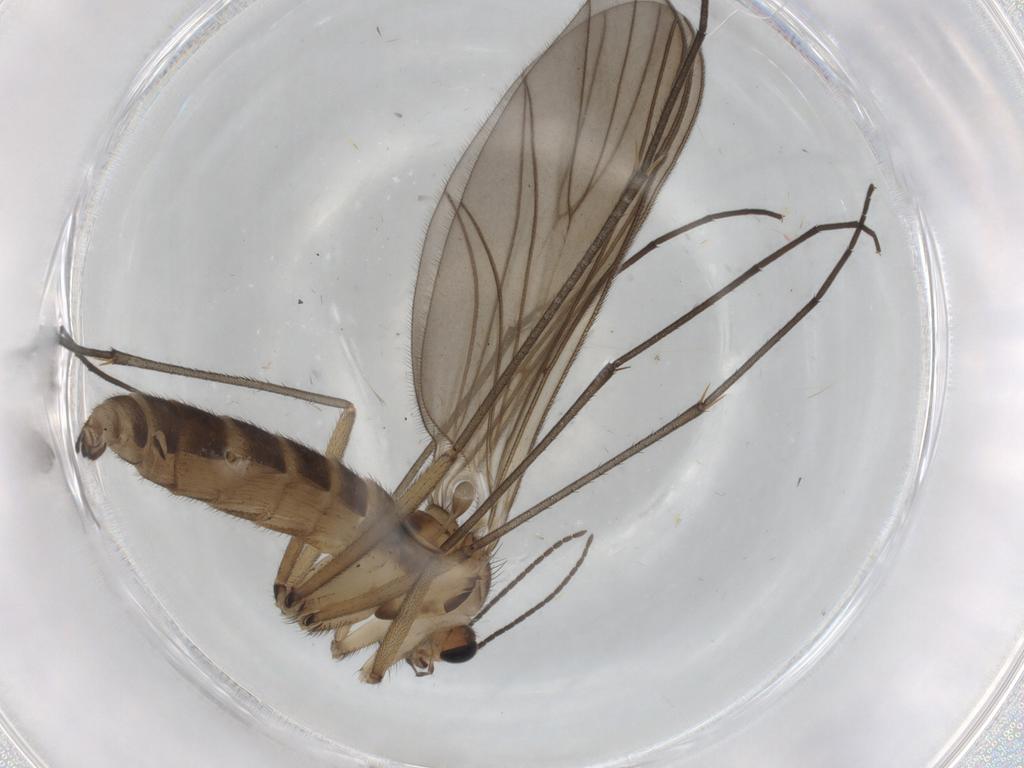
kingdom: Animalia
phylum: Arthropoda
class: Insecta
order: Diptera
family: Sciaridae
